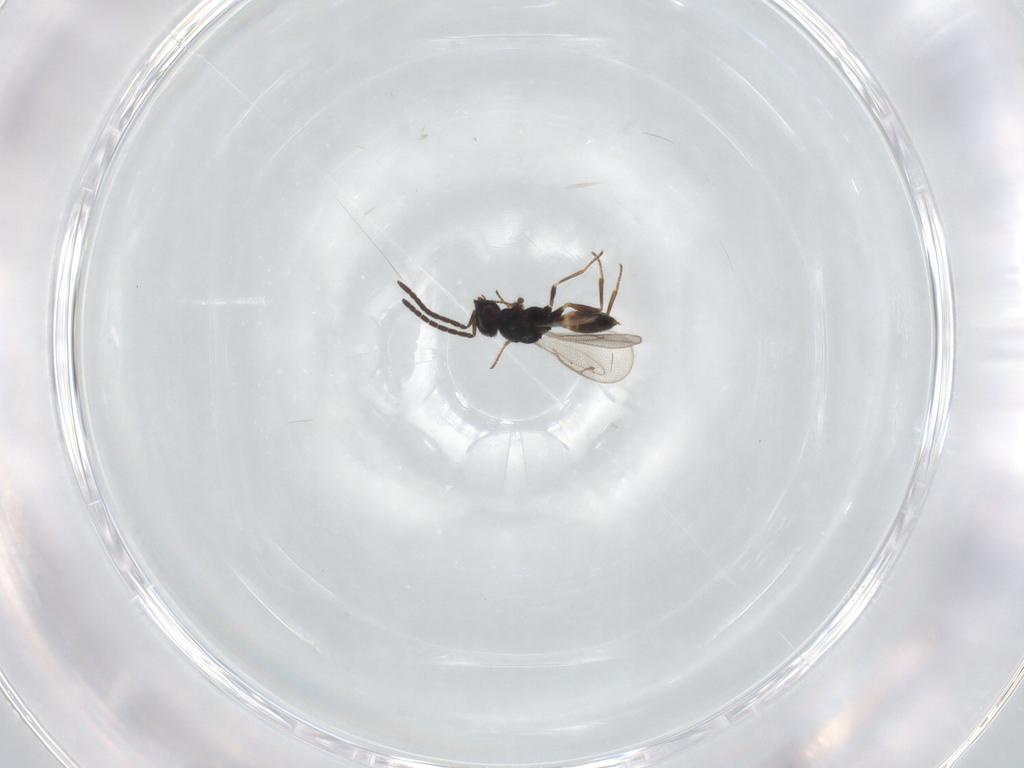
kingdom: Animalia
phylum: Arthropoda
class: Insecta
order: Hymenoptera
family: Pteromalidae
